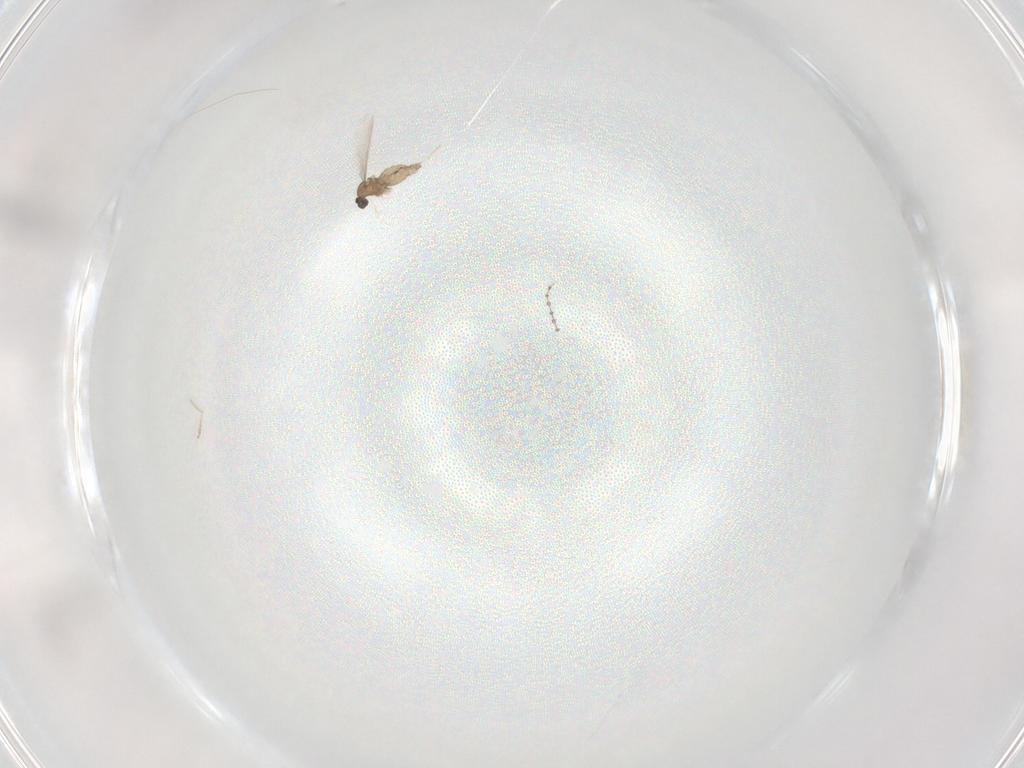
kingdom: Animalia
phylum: Arthropoda
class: Insecta
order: Diptera
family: Cecidomyiidae
